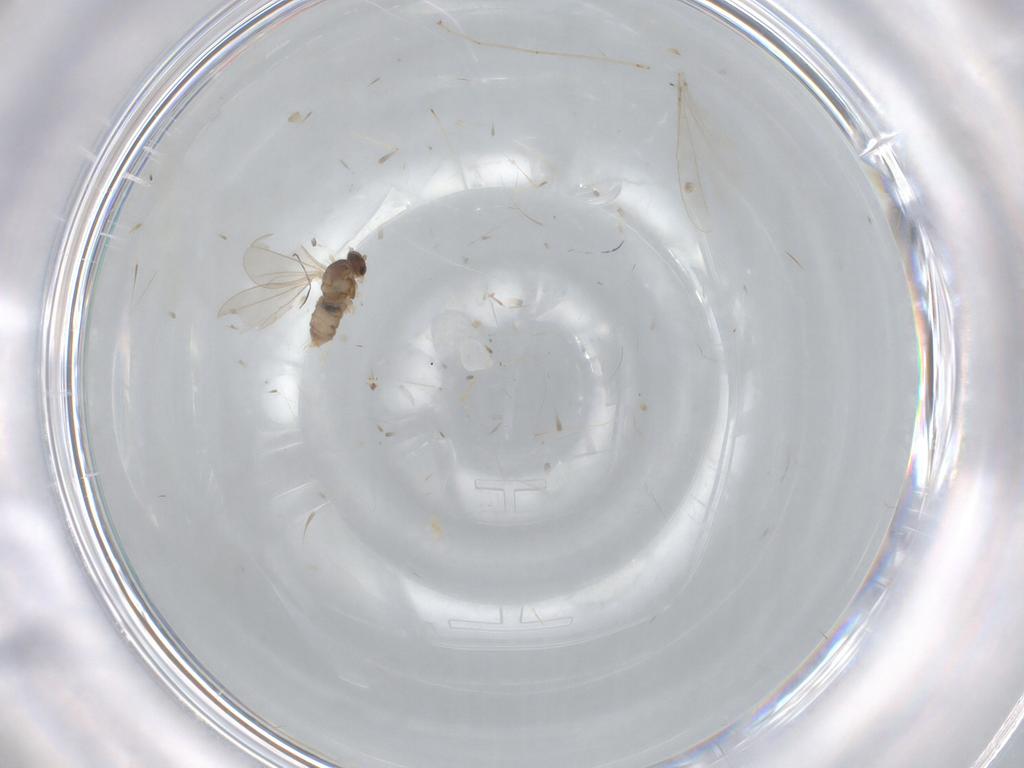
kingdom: Animalia
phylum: Arthropoda
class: Insecta
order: Diptera
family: Cecidomyiidae
